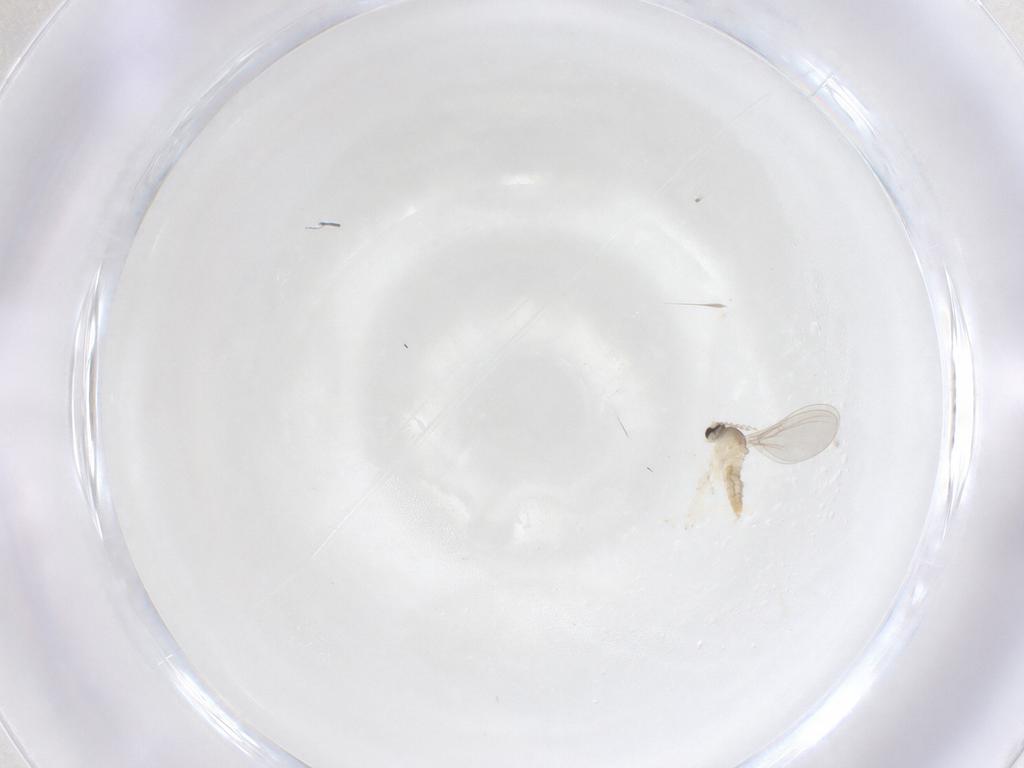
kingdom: Animalia
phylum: Arthropoda
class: Insecta
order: Diptera
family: Cecidomyiidae
